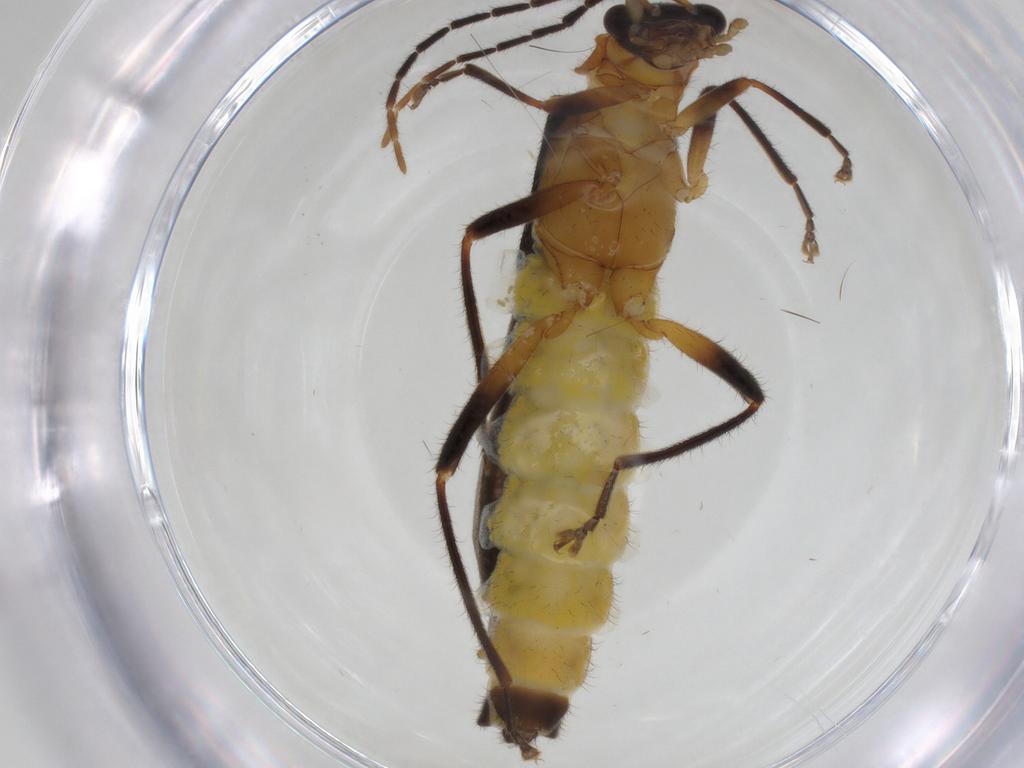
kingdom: Animalia
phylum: Arthropoda
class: Insecta
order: Coleoptera
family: Cantharidae
